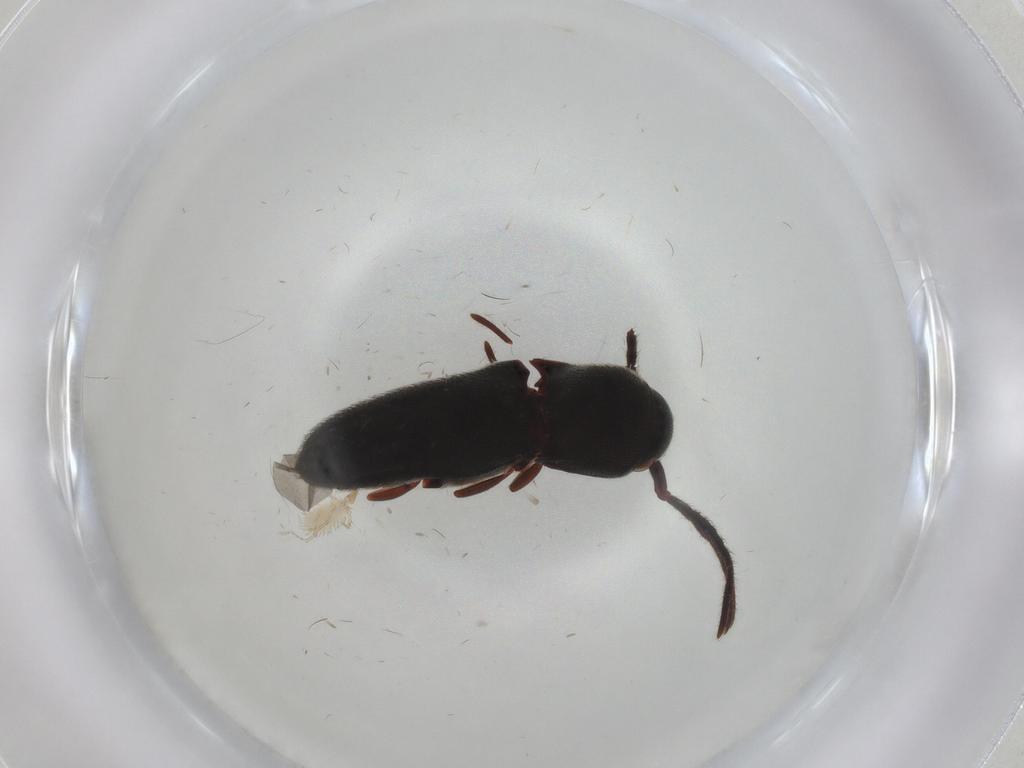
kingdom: Animalia
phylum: Arthropoda
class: Insecta
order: Coleoptera
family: Eucnemidae
